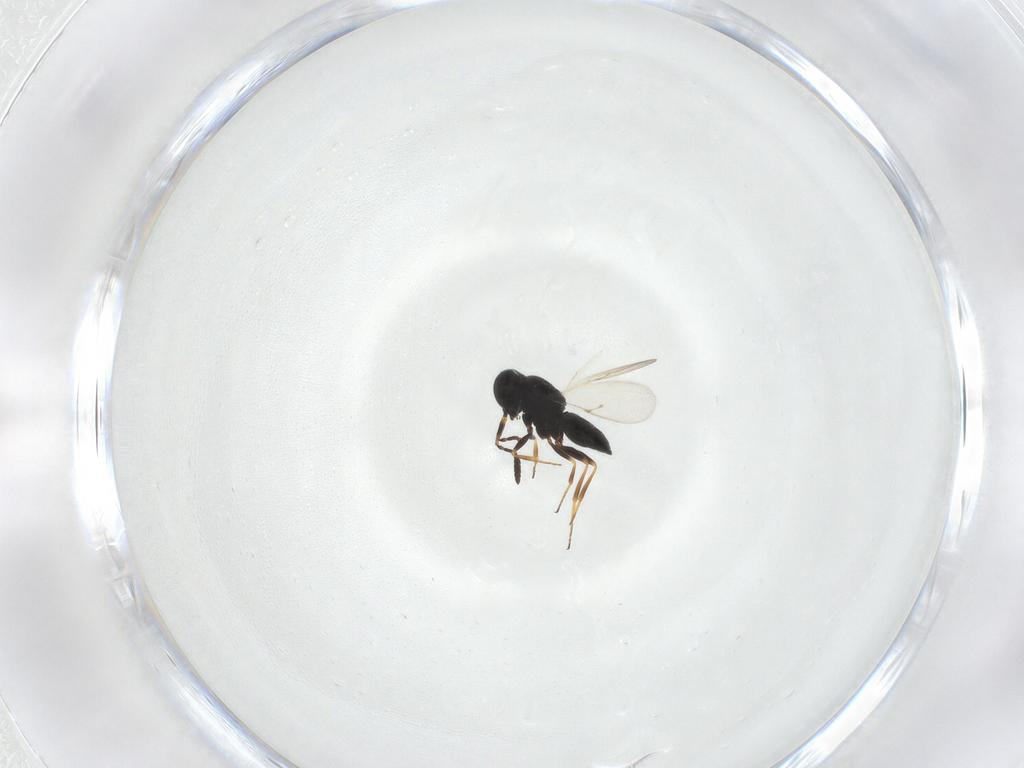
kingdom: Animalia
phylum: Arthropoda
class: Insecta
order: Hymenoptera
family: Scelionidae
